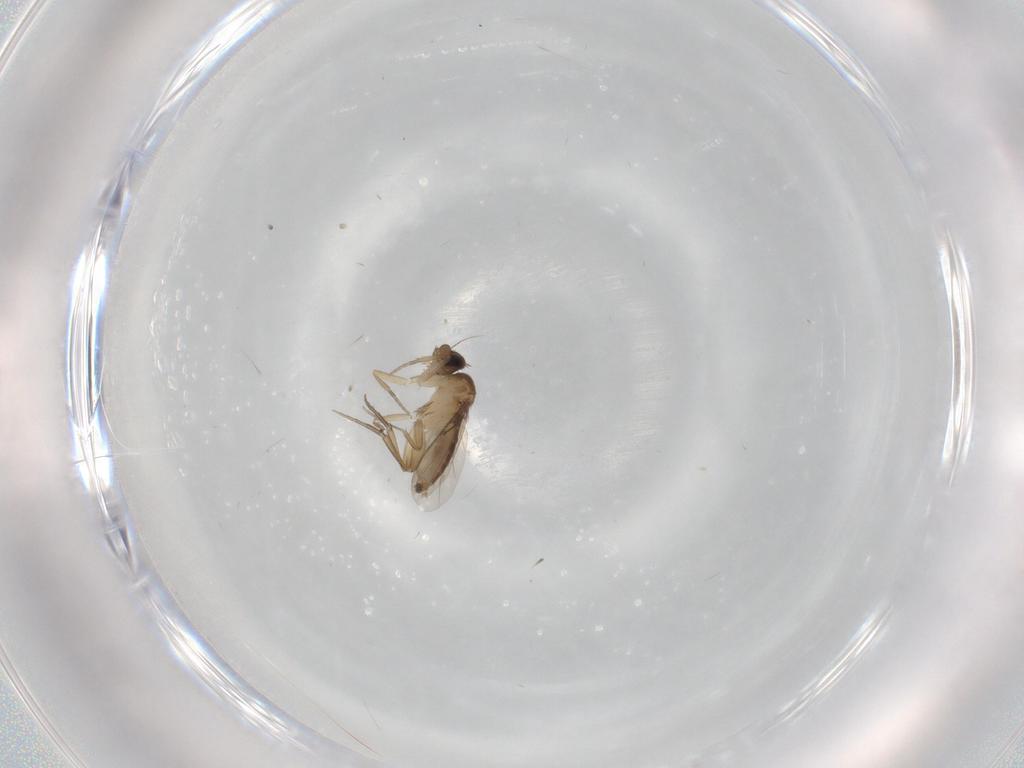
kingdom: Animalia
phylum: Arthropoda
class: Insecta
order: Diptera
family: Phoridae
